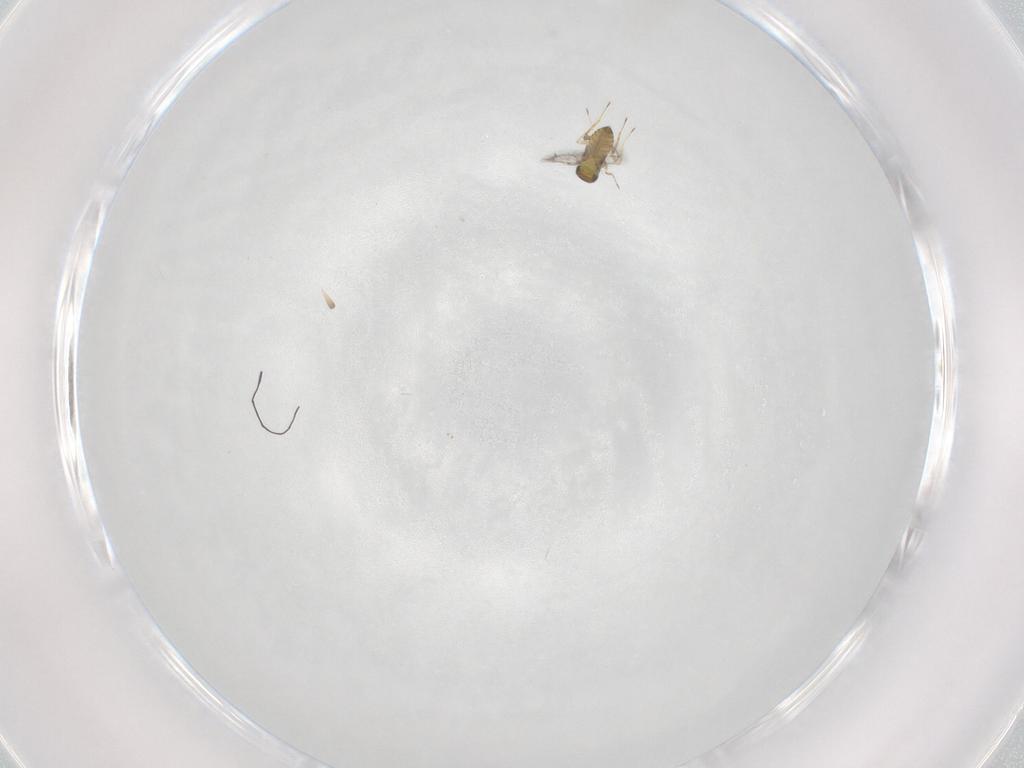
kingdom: Animalia
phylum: Arthropoda
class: Insecta
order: Hymenoptera
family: Trichogrammatidae
